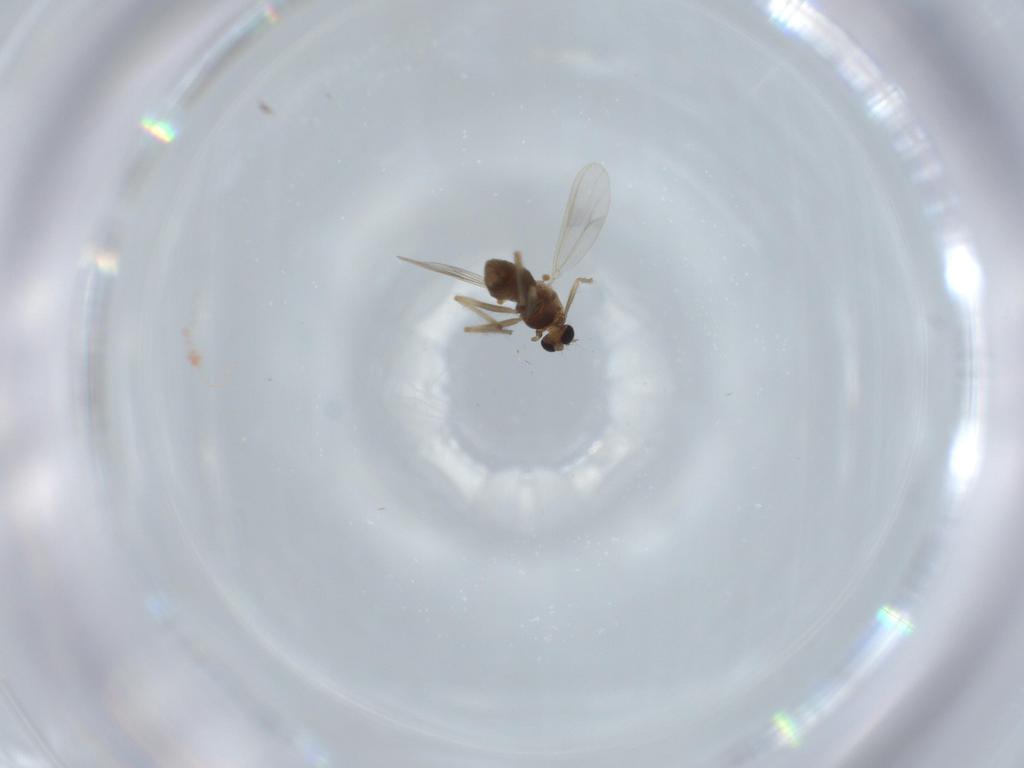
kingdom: Animalia
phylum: Arthropoda
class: Insecta
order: Diptera
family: Chironomidae
